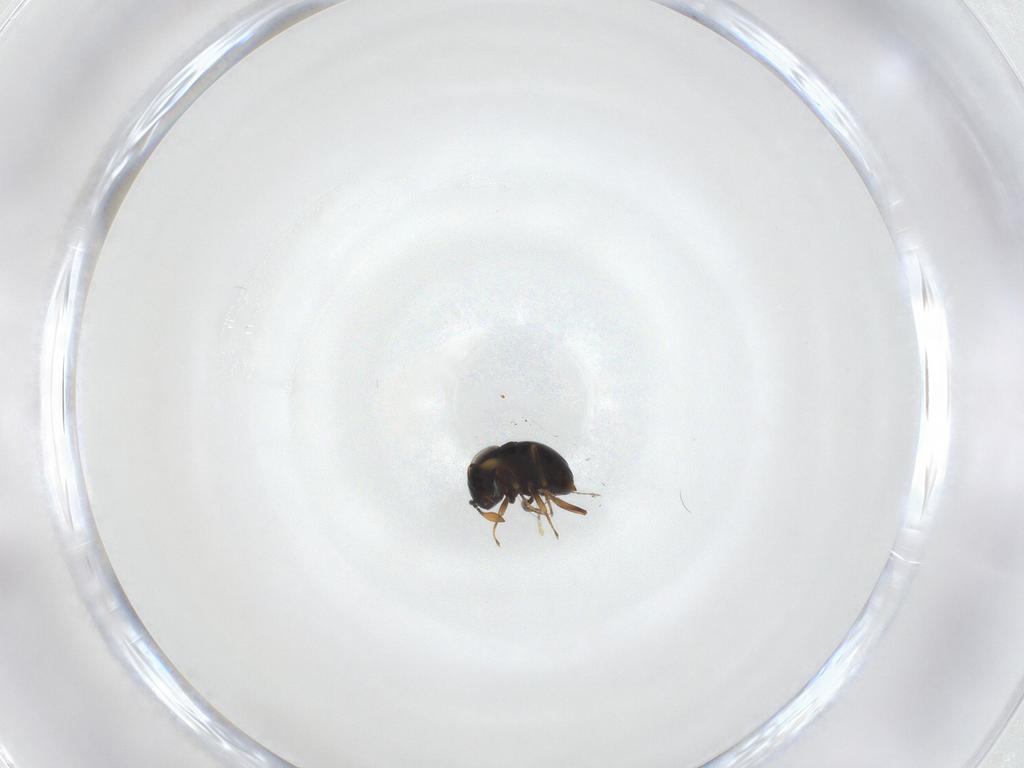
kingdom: Animalia
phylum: Arthropoda
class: Insecta
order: Hymenoptera
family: Scelionidae
